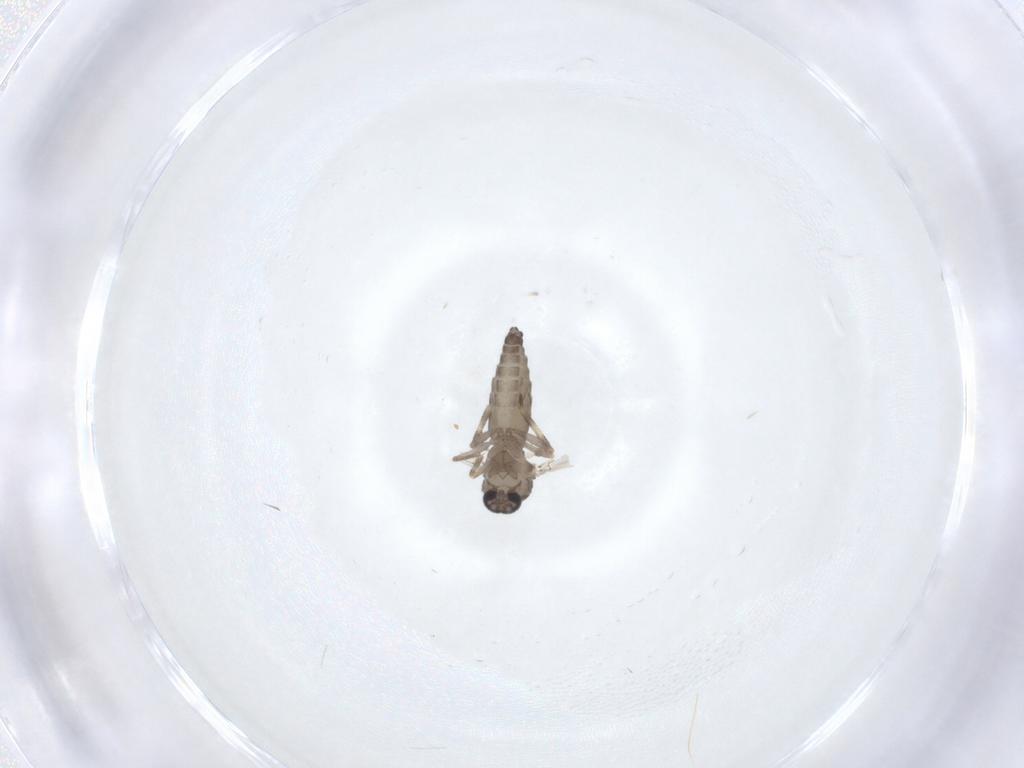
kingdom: Animalia
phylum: Arthropoda
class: Insecta
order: Diptera
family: Ceratopogonidae
